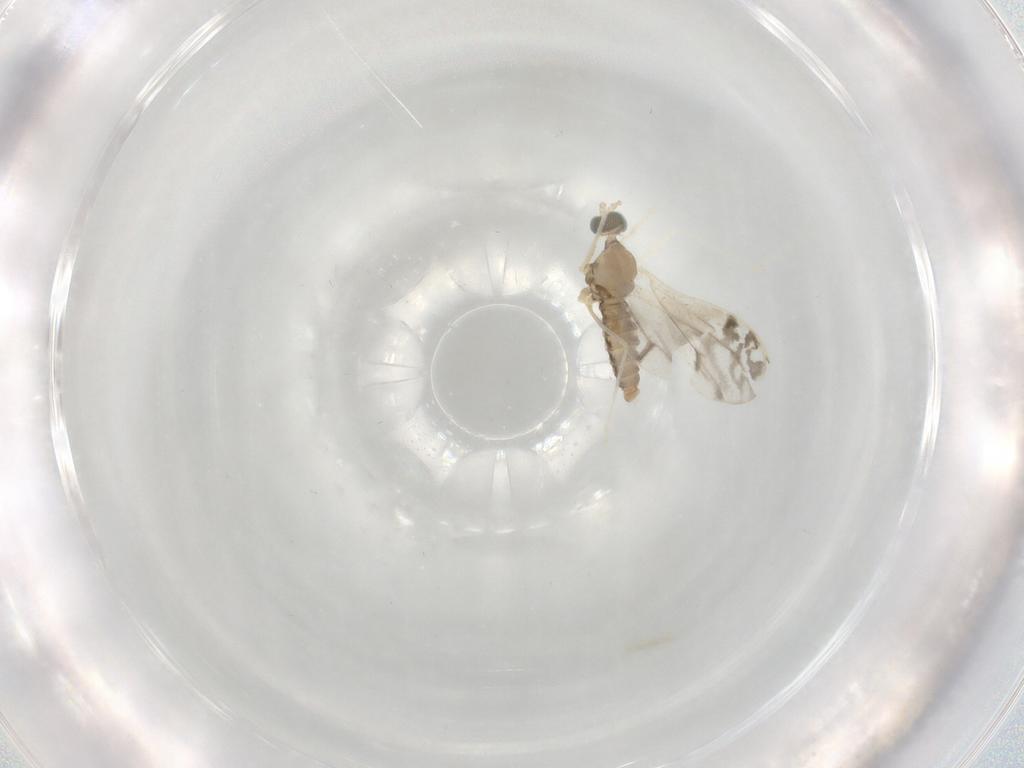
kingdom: Animalia
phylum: Arthropoda
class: Insecta
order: Diptera
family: Cecidomyiidae
